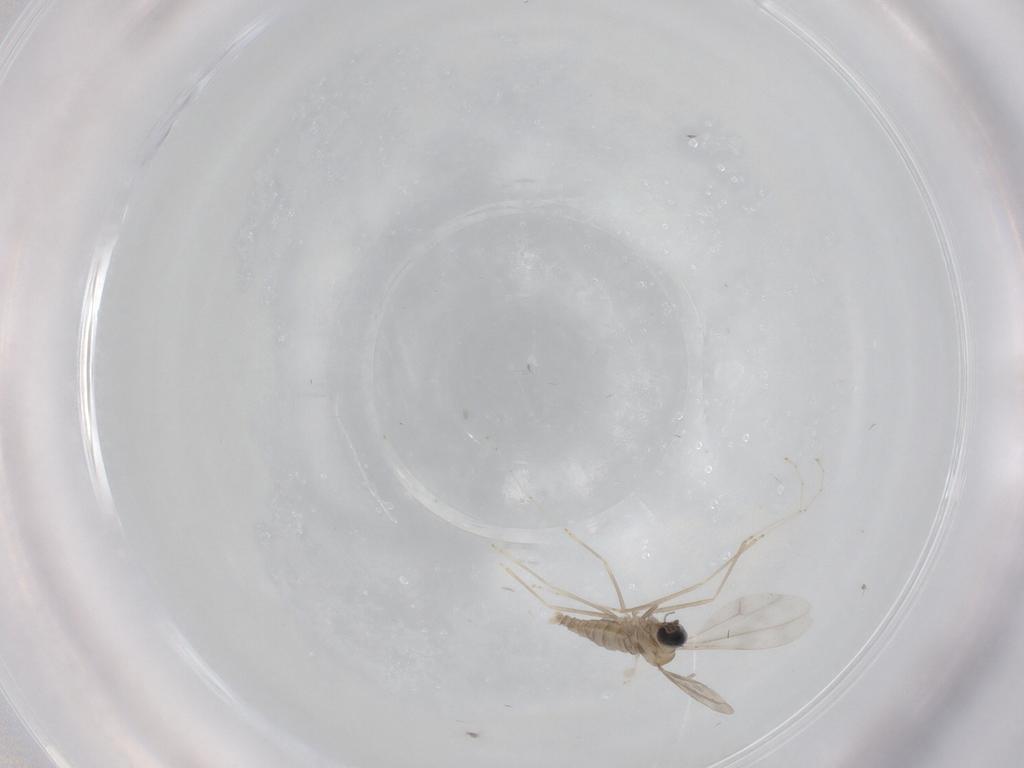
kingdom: Animalia
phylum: Arthropoda
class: Insecta
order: Diptera
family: Cecidomyiidae
